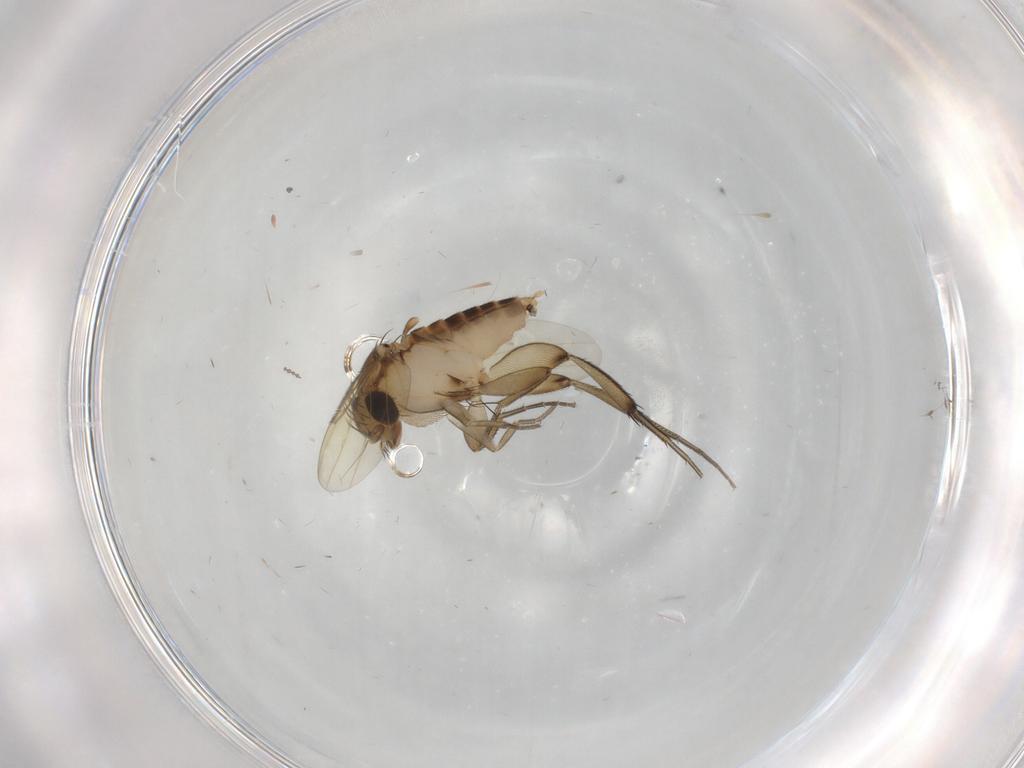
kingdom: Animalia
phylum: Arthropoda
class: Insecta
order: Diptera
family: Phoridae
